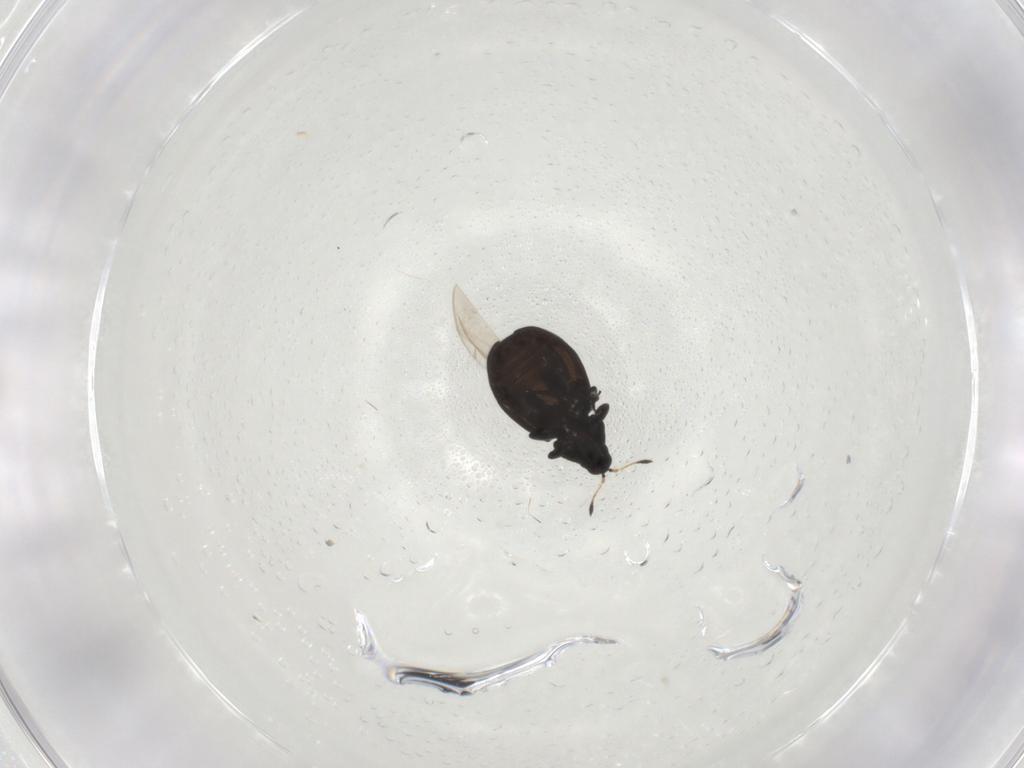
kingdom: Animalia
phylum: Arthropoda
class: Insecta
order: Coleoptera
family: Curculionidae
